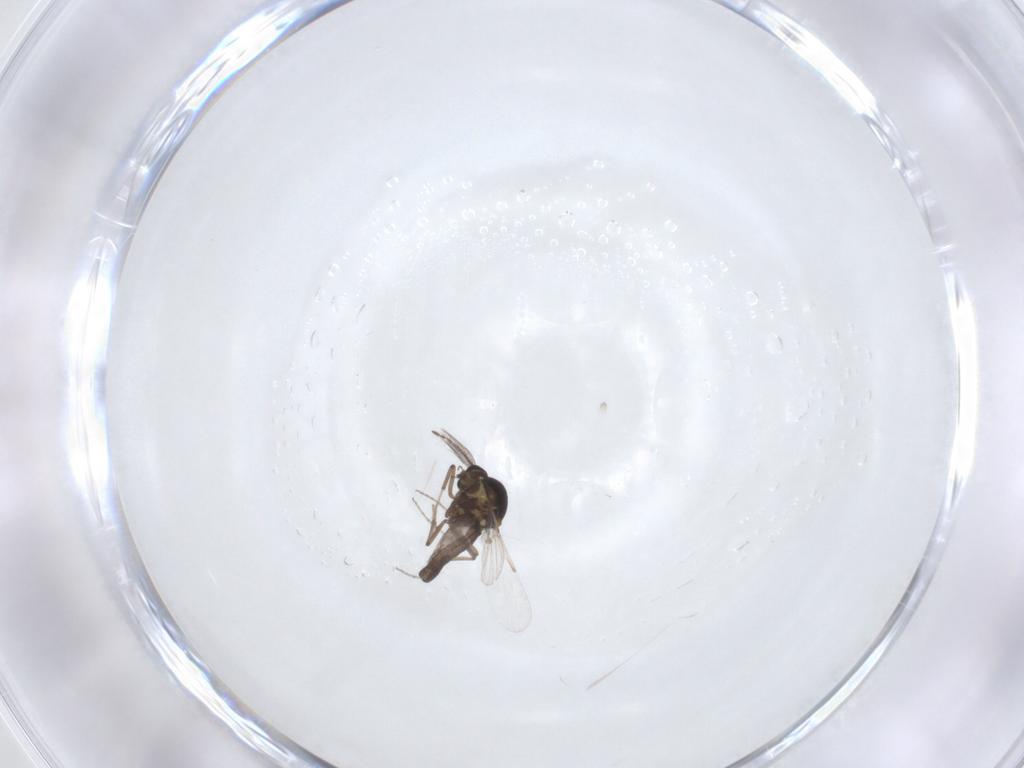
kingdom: Animalia
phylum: Arthropoda
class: Insecta
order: Diptera
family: Ceratopogonidae
